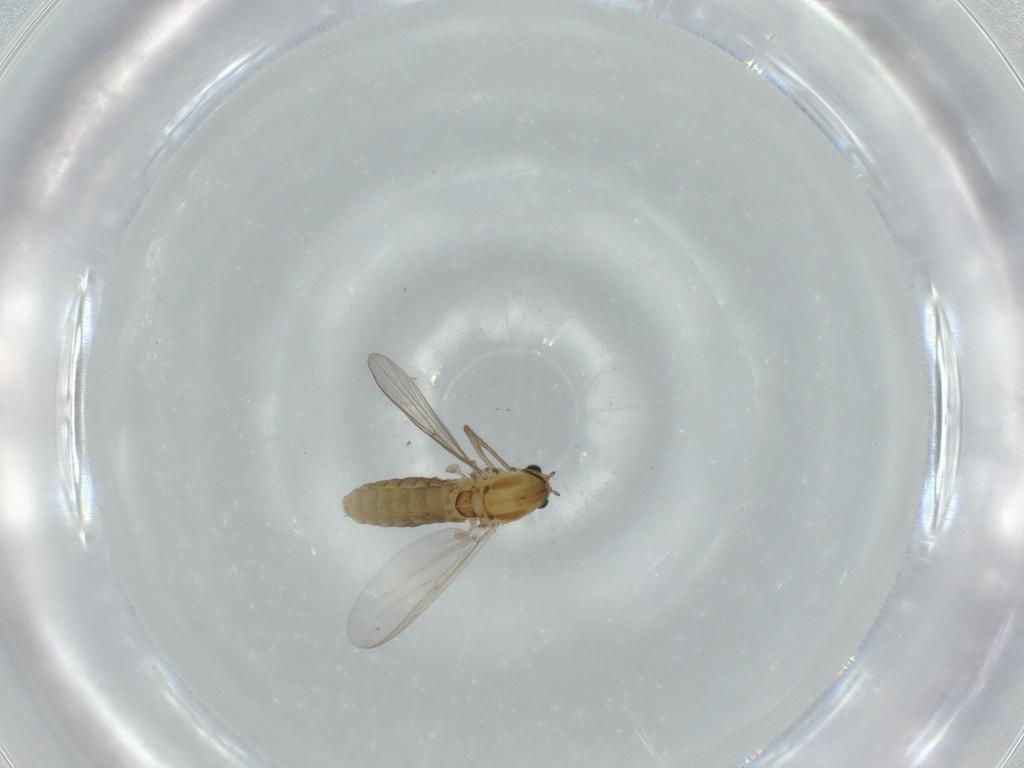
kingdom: Animalia
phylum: Arthropoda
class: Insecta
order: Diptera
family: Chironomidae
